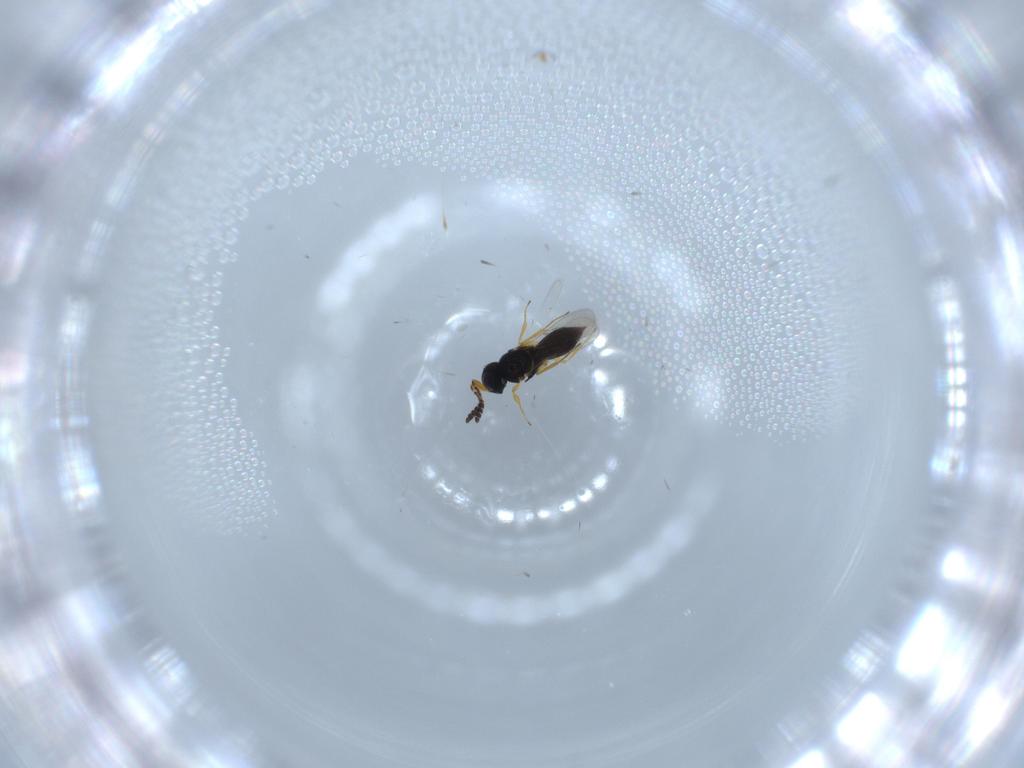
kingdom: Animalia
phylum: Arthropoda
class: Insecta
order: Hymenoptera
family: Scelionidae
